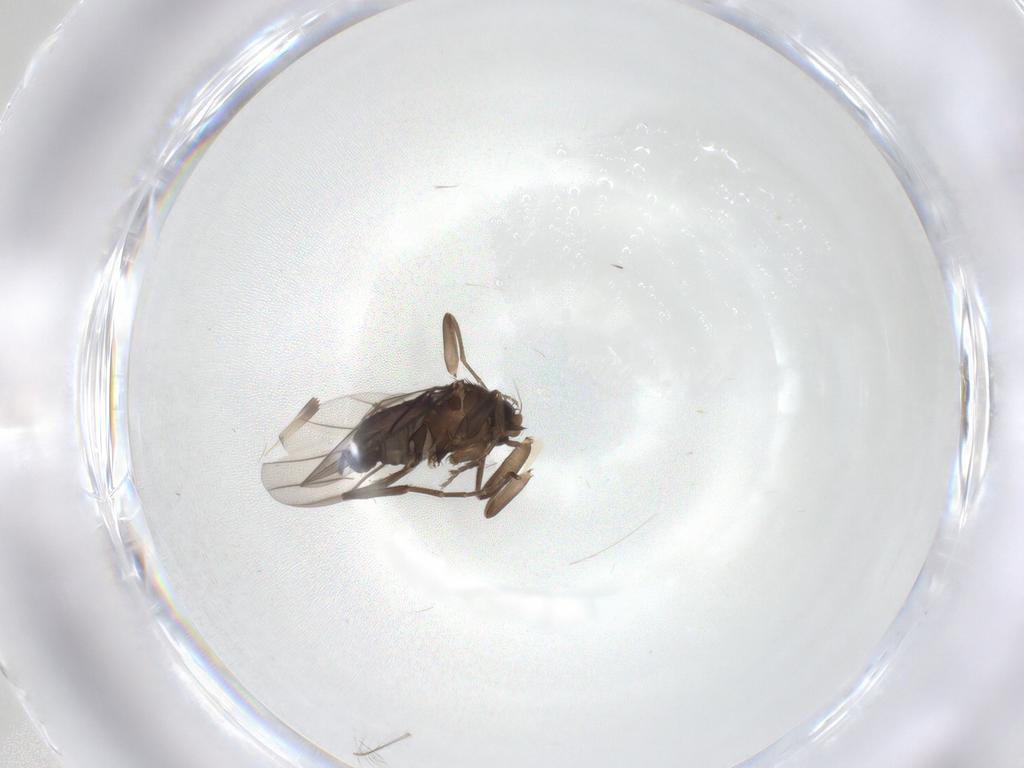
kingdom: Animalia
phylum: Arthropoda
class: Insecta
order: Diptera
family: Phoridae
